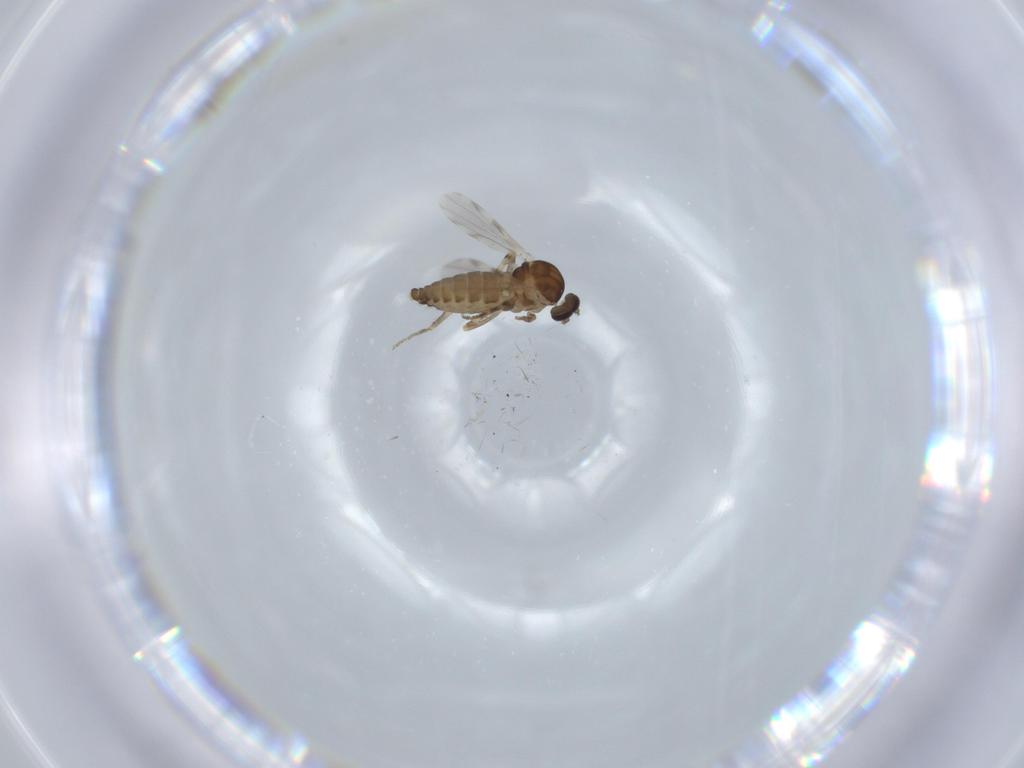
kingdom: Animalia
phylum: Arthropoda
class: Insecta
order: Diptera
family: Ceratopogonidae
